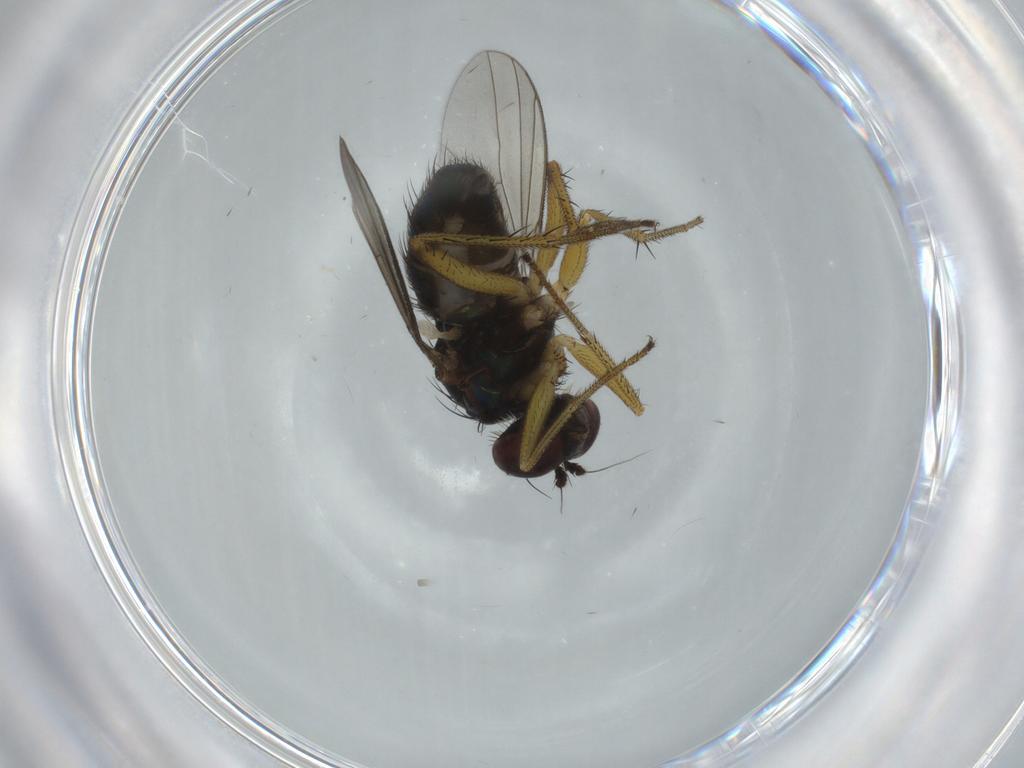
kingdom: Animalia
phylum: Arthropoda
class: Insecta
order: Diptera
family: Dolichopodidae
